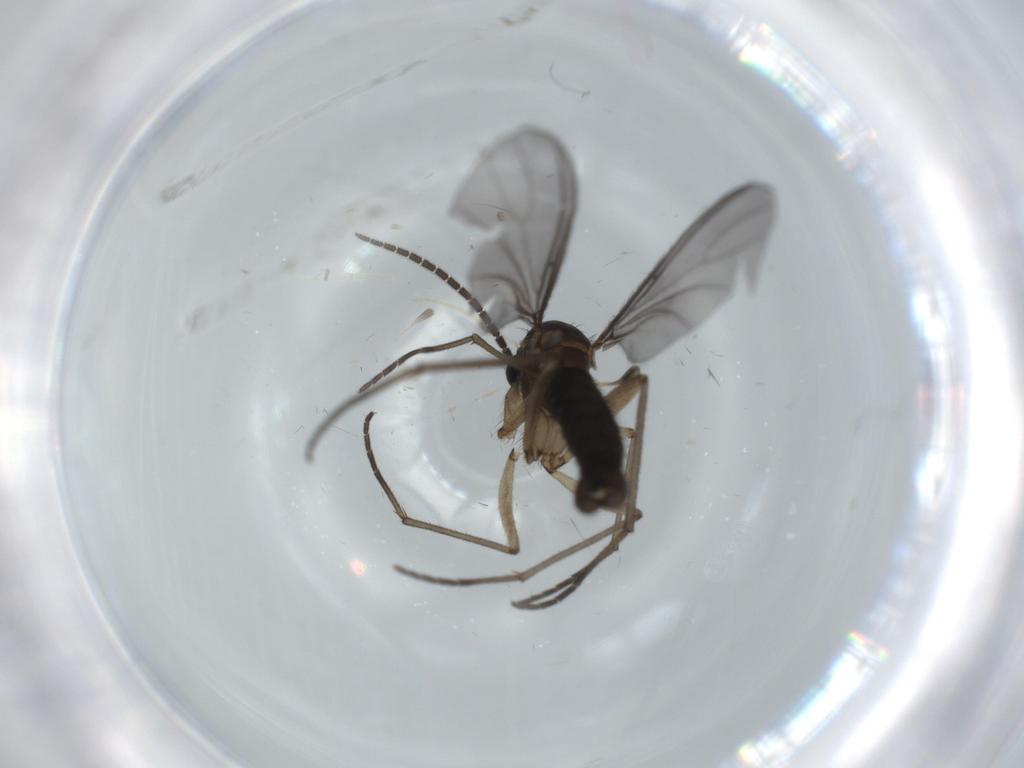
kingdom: Animalia
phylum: Arthropoda
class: Insecta
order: Diptera
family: Sciaridae
